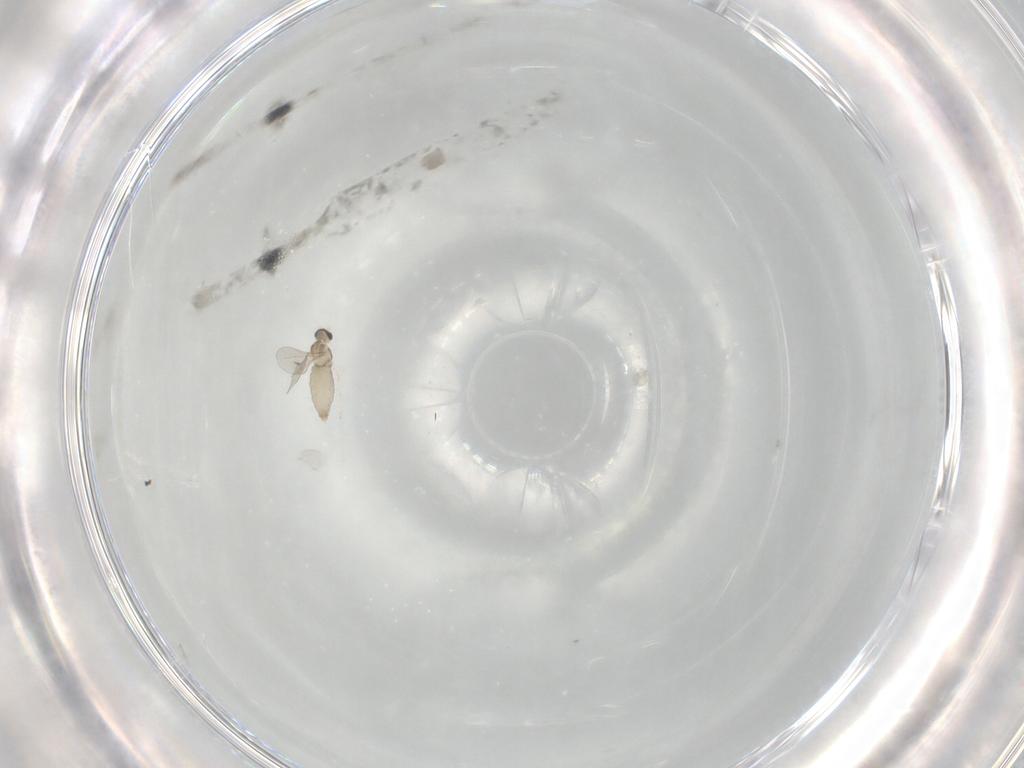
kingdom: Animalia
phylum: Arthropoda
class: Insecta
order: Diptera
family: Cecidomyiidae
